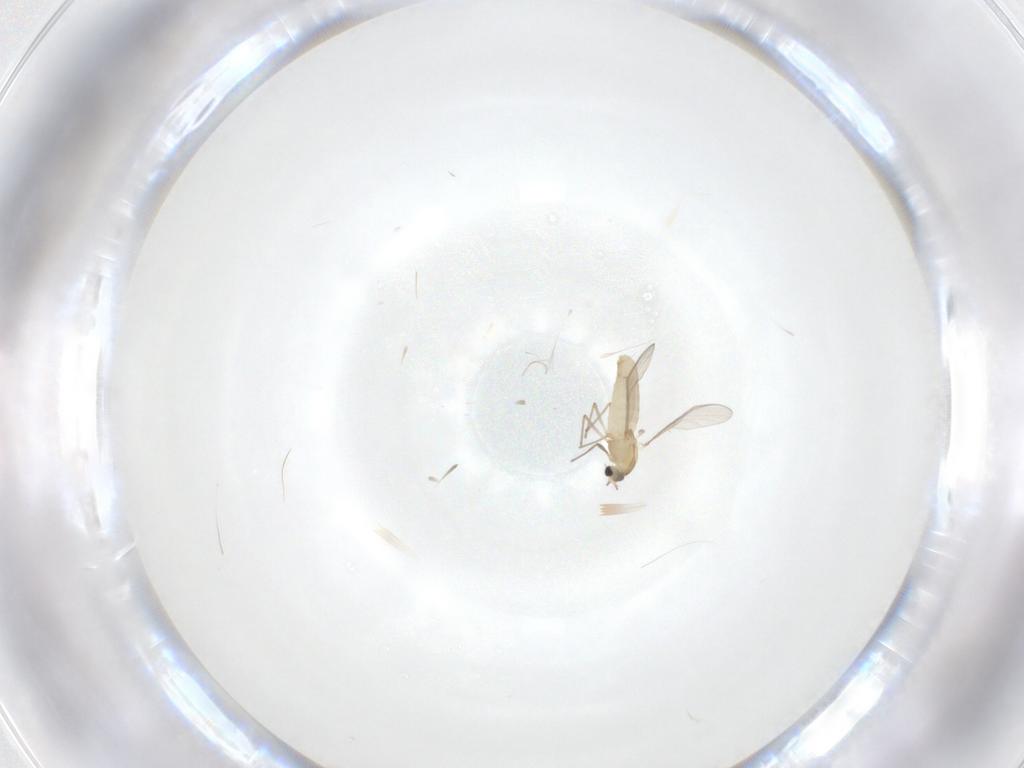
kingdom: Animalia
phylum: Arthropoda
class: Insecta
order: Diptera
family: Chironomidae
